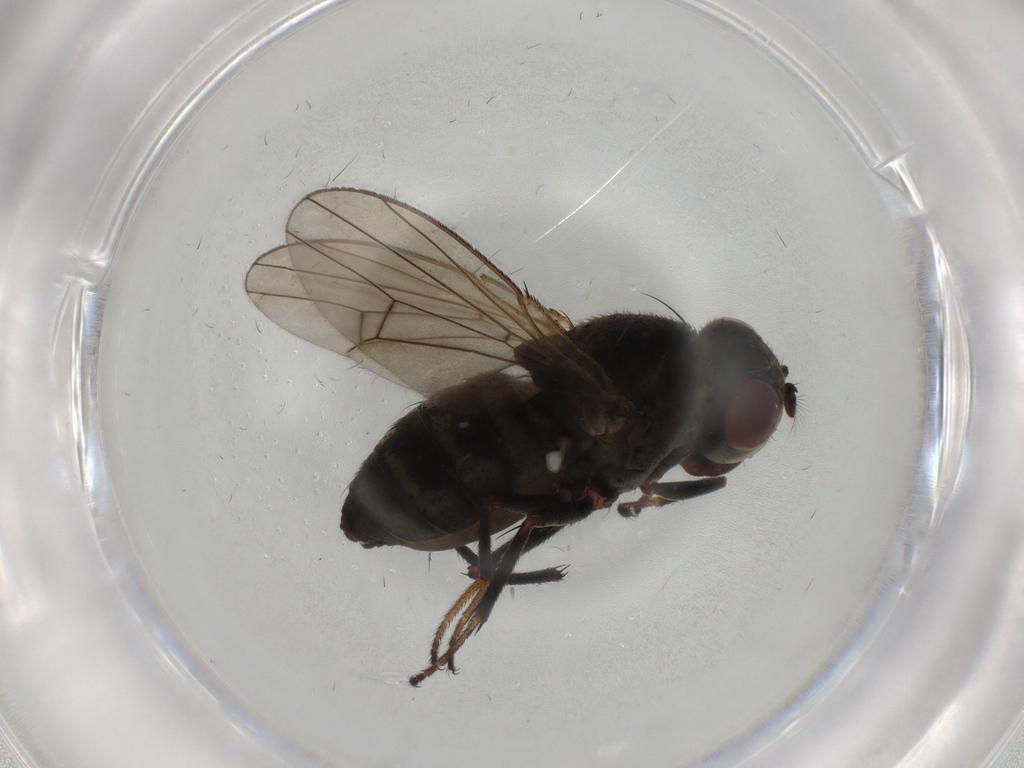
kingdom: Animalia
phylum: Arthropoda
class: Insecta
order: Diptera
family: Ephydridae
